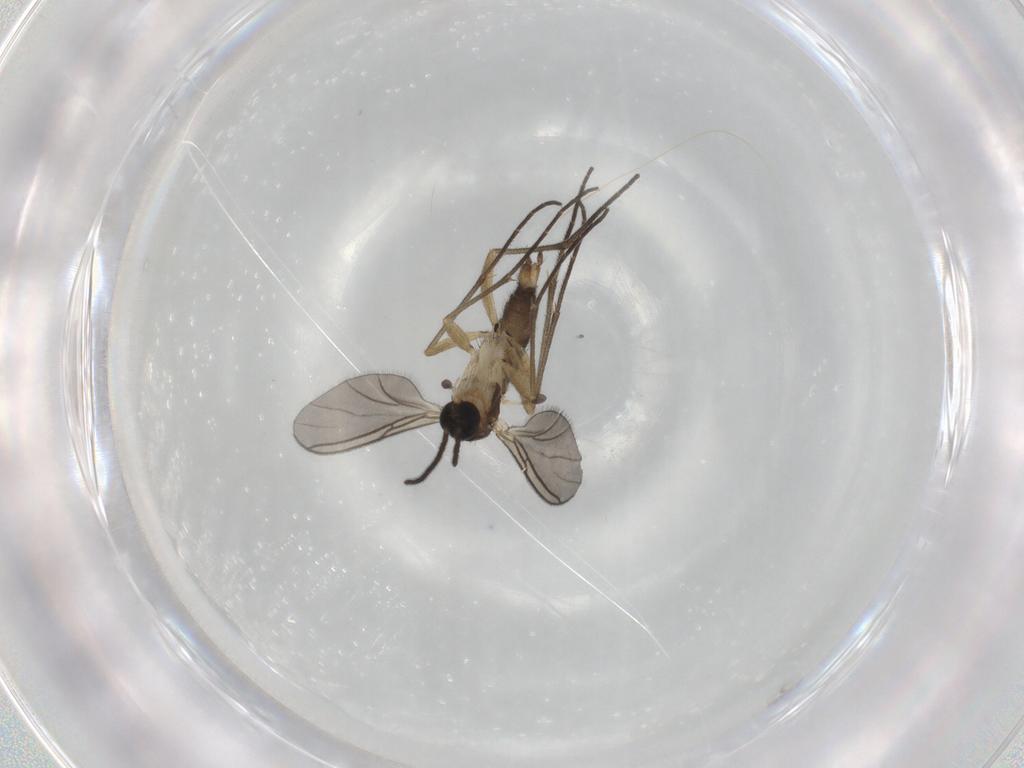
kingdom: Animalia
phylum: Arthropoda
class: Insecta
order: Diptera
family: Sciaridae
